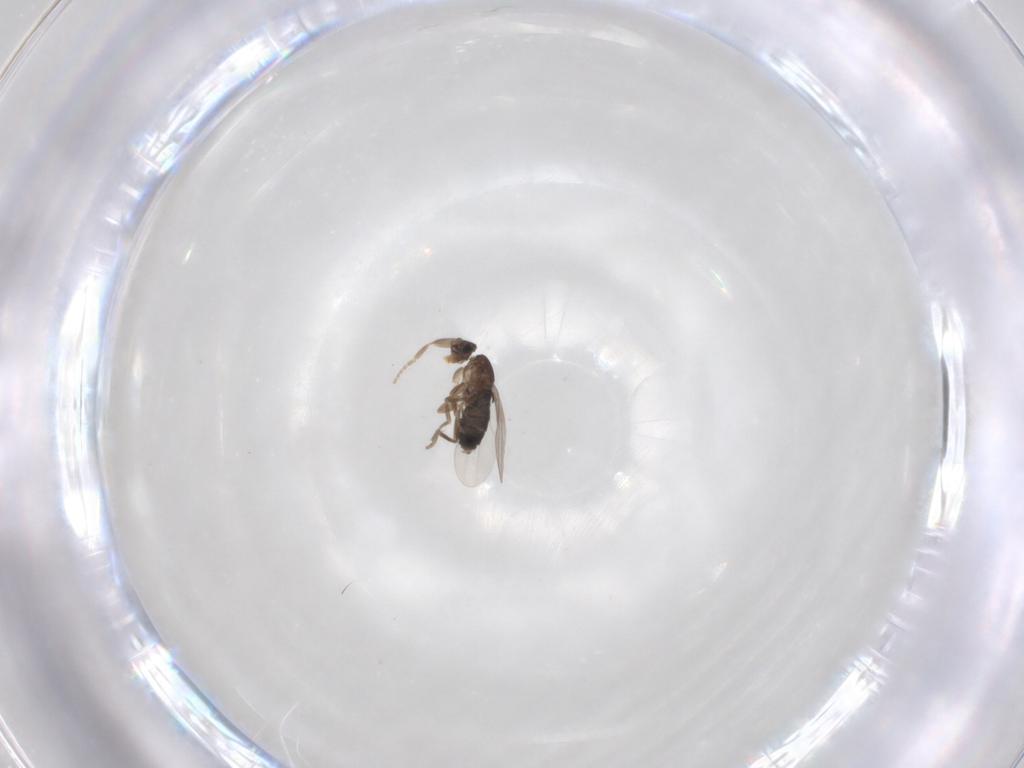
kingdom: Animalia
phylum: Arthropoda
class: Insecta
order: Diptera
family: Phoridae
